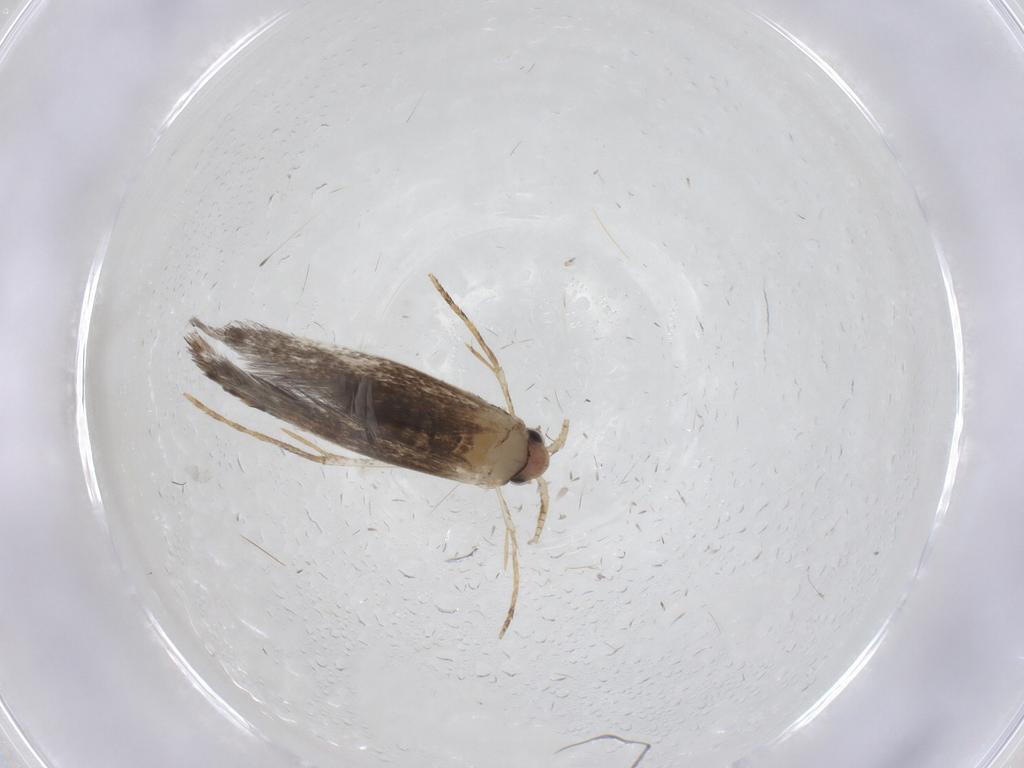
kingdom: Animalia
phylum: Arthropoda
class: Insecta
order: Lepidoptera
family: Tineidae
